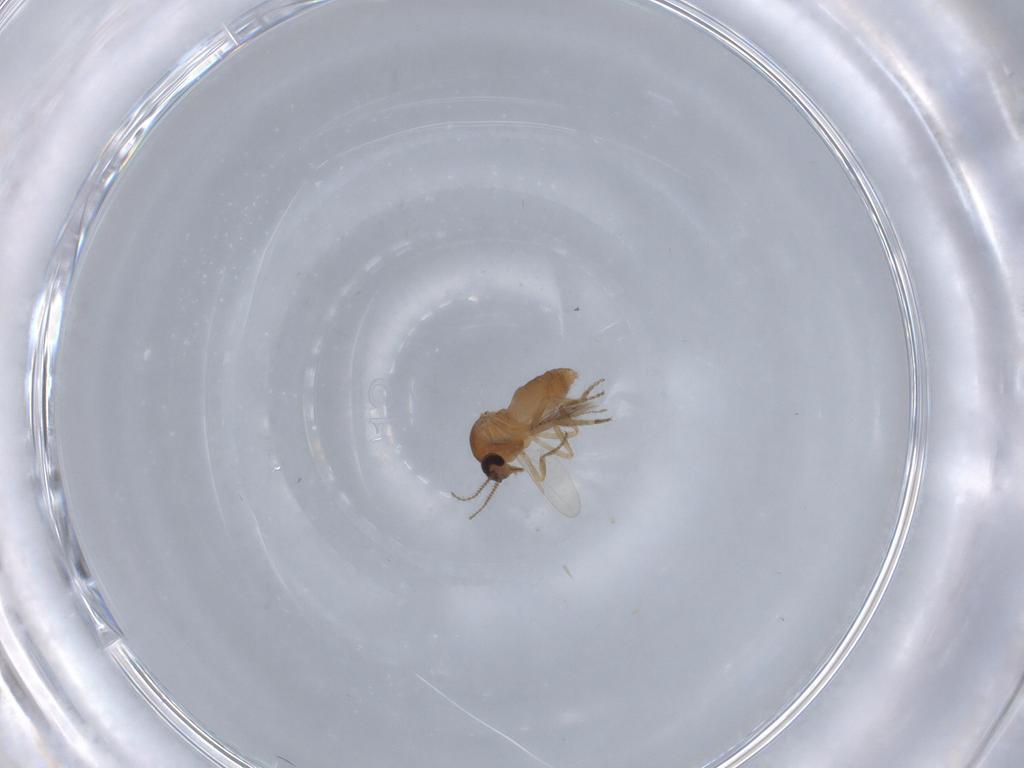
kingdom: Animalia
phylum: Arthropoda
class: Insecta
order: Diptera
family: Ceratopogonidae
